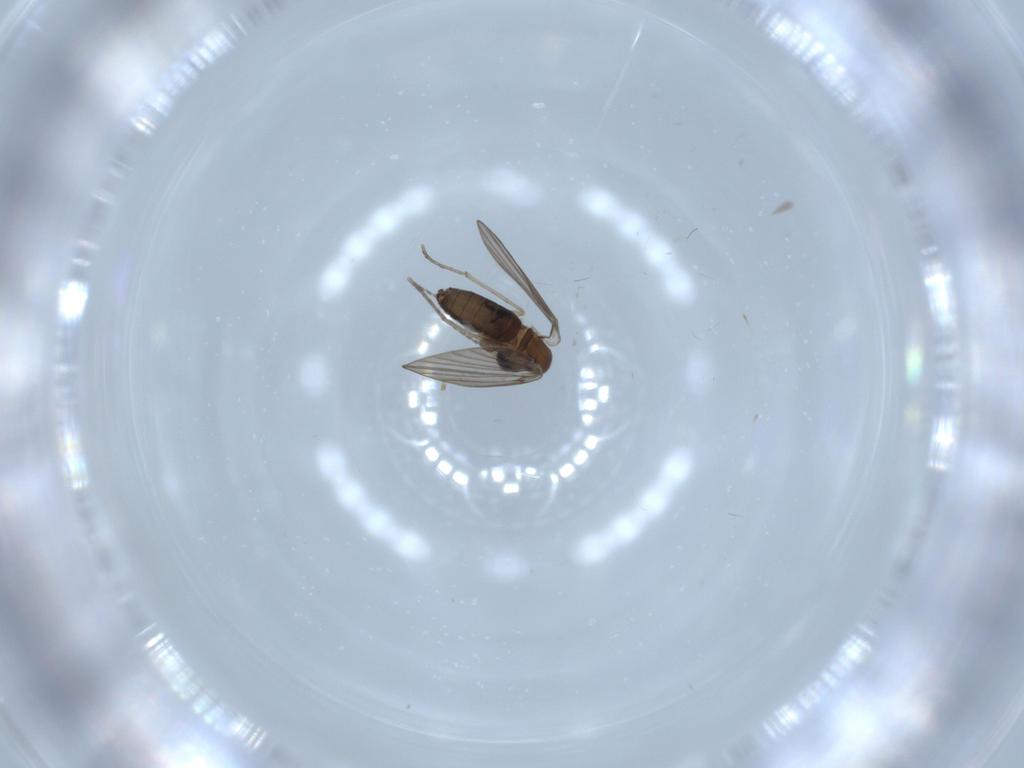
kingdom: Animalia
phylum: Arthropoda
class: Insecta
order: Diptera
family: Psychodidae
